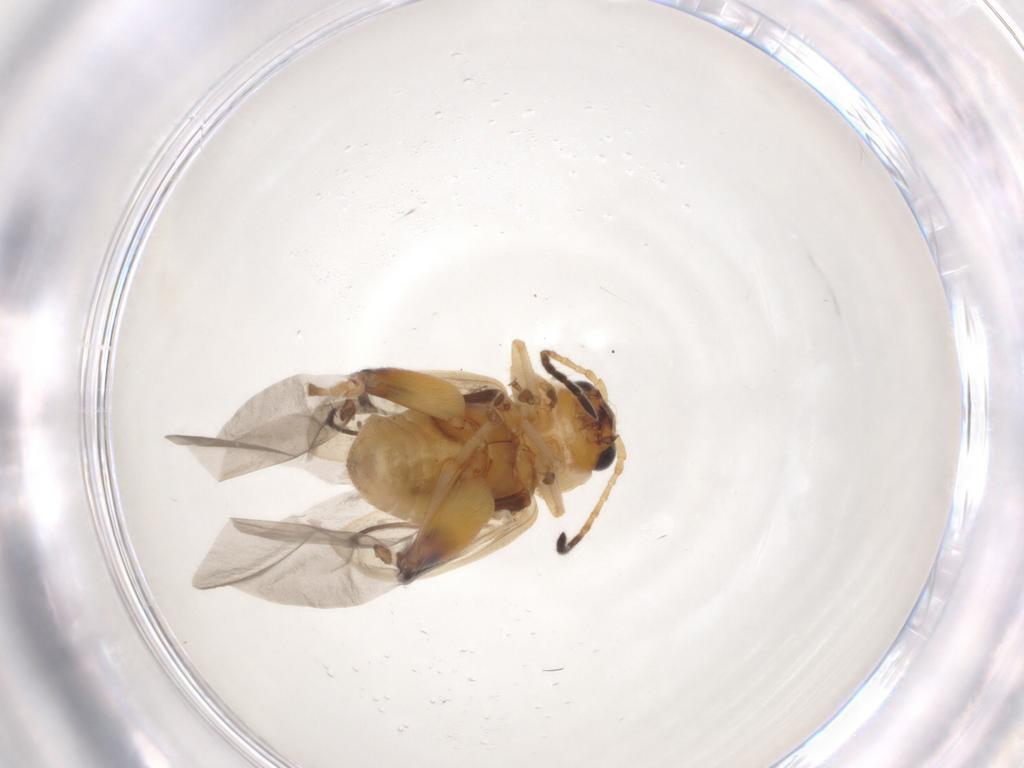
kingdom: Animalia
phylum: Arthropoda
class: Insecta
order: Coleoptera
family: Chrysomelidae
